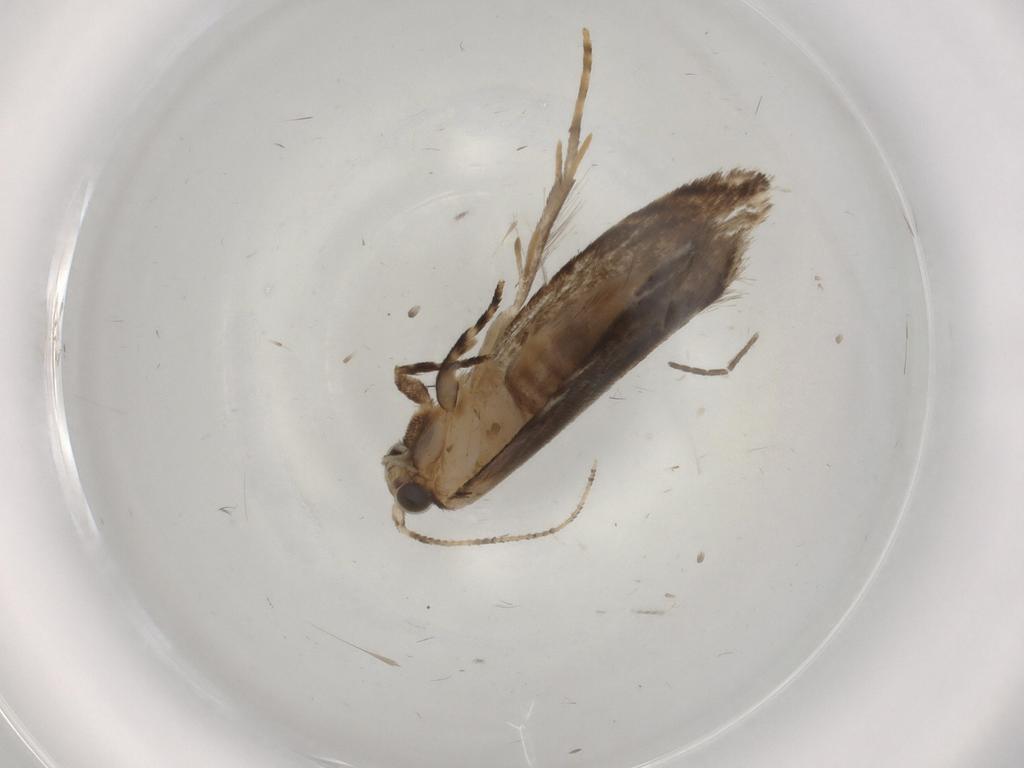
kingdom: Animalia
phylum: Arthropoda
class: Insecta
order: Lepidoptera
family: Tineidae
